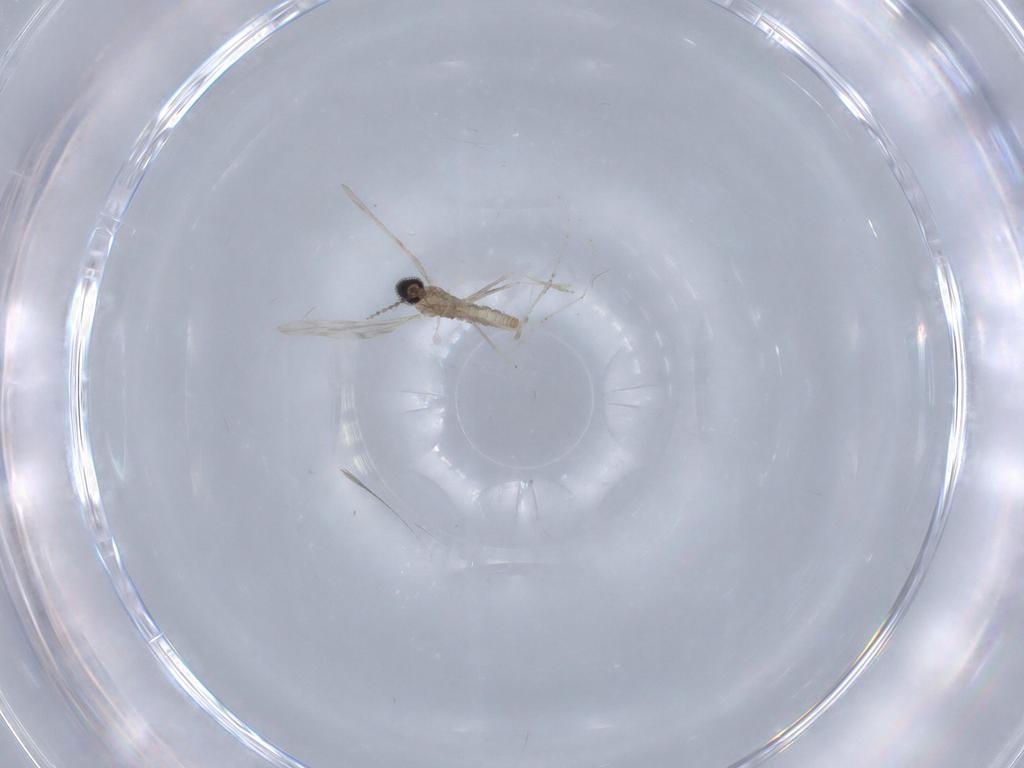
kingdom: Animalia
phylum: Arthropoda
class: Insecta
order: Diptera
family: Cecidomyiidae
